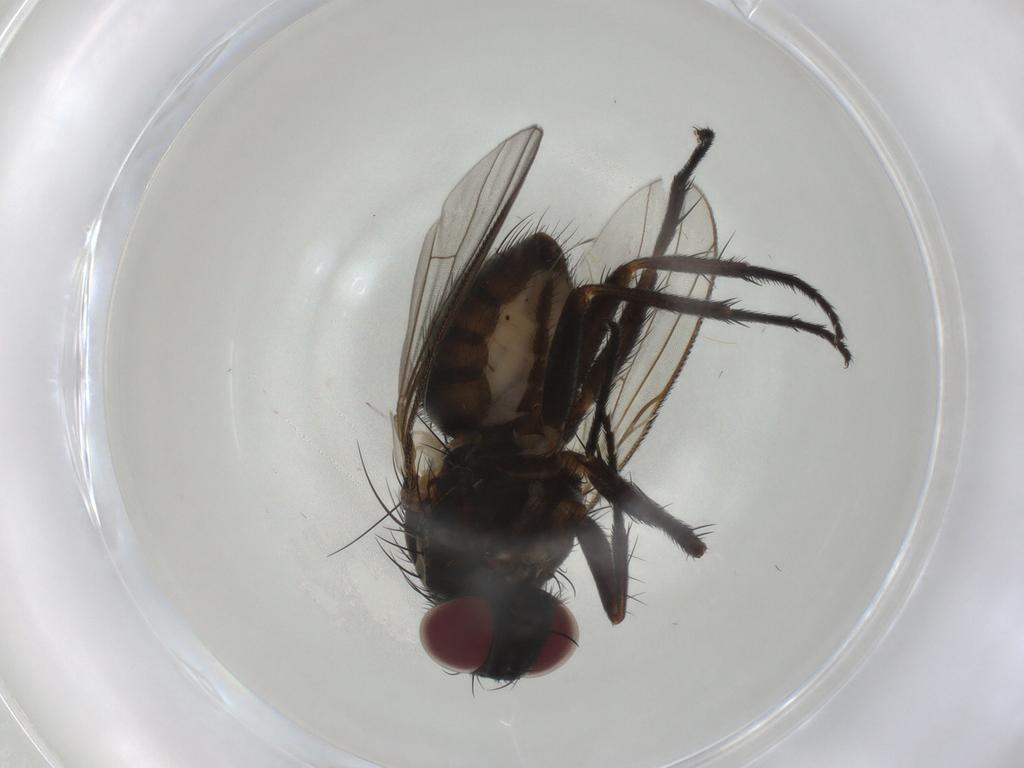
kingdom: Animalia
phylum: Arthropoda
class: Insecta
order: Diptera
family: Muscidae
